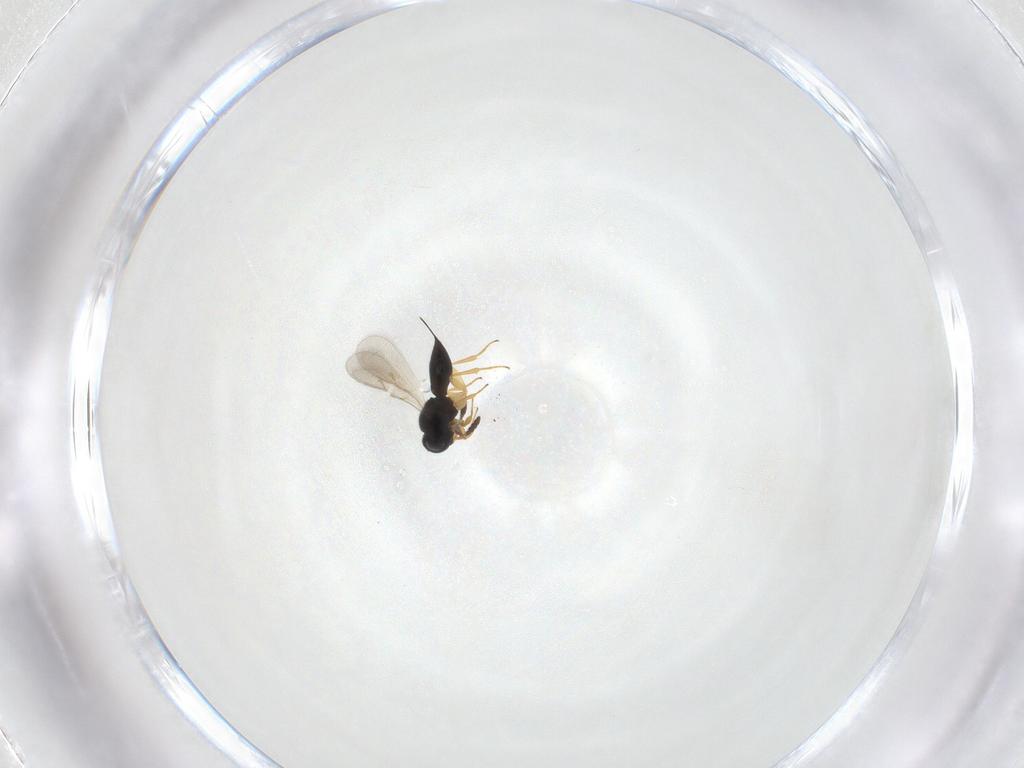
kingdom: Animalia
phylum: Arthropoda
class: Insecta
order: Hymenoptera
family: Scelionidae
